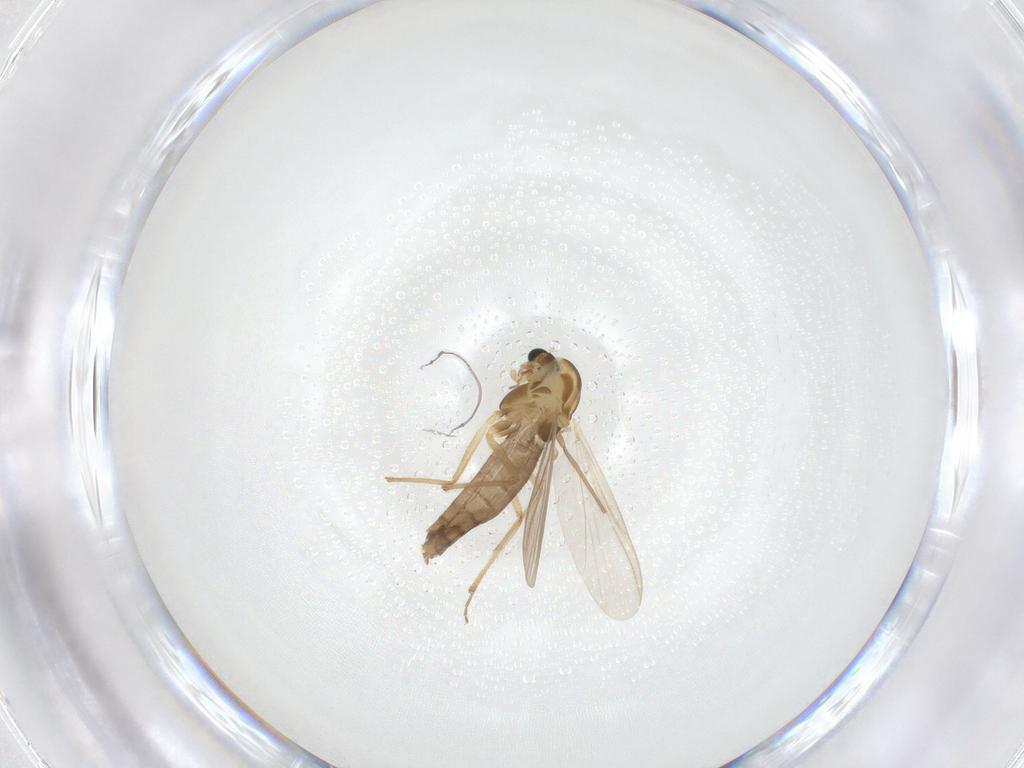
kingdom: Animalia
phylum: Arthropoda
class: Insecta
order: Diptera
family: Chironomidae
